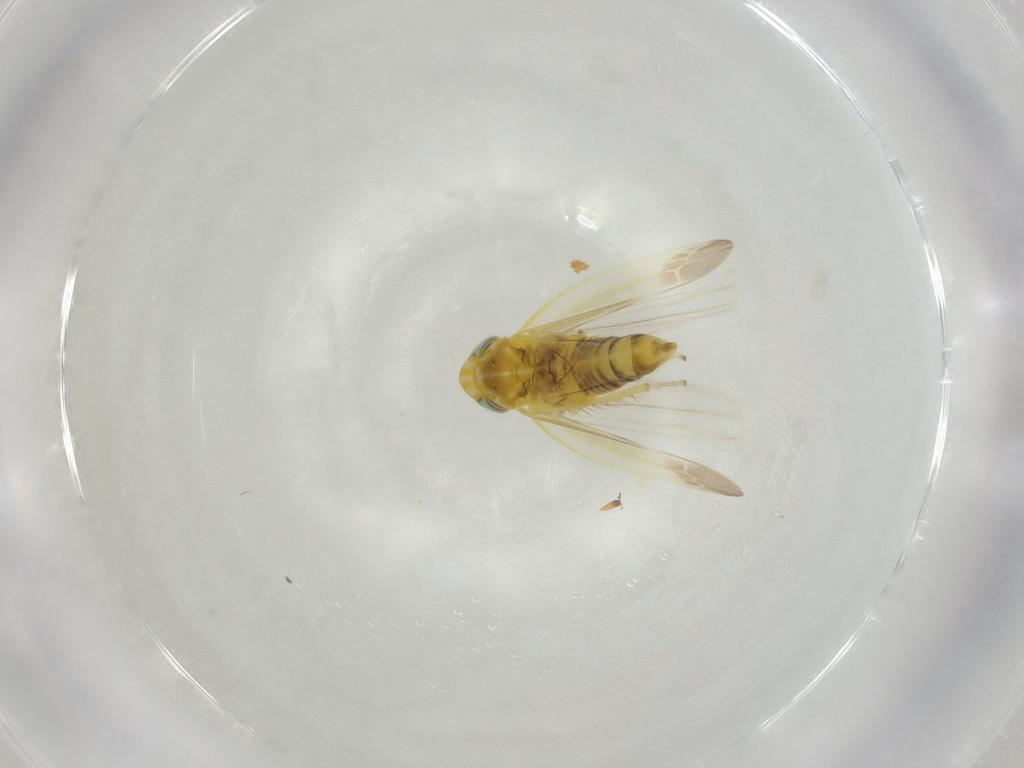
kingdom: Animalia
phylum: Arthropoda
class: Insecta
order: Hemiptera
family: Blissidae
